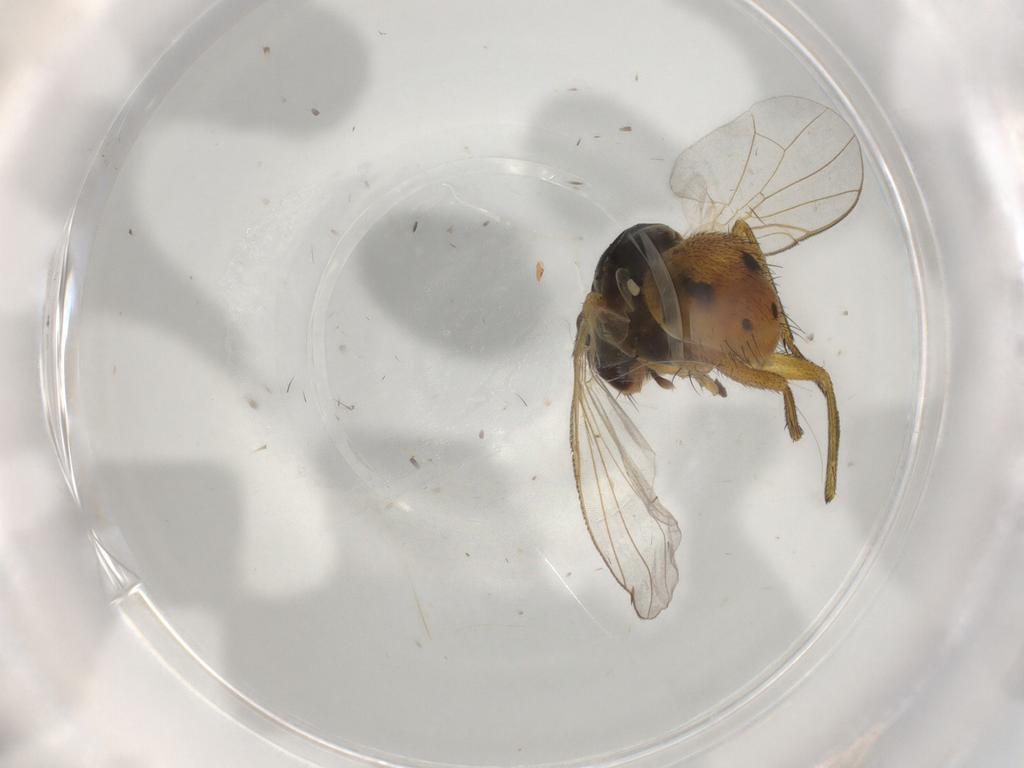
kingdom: Animalia
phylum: Arthropoda
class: Insecta
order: Diptera
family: Muscidae
